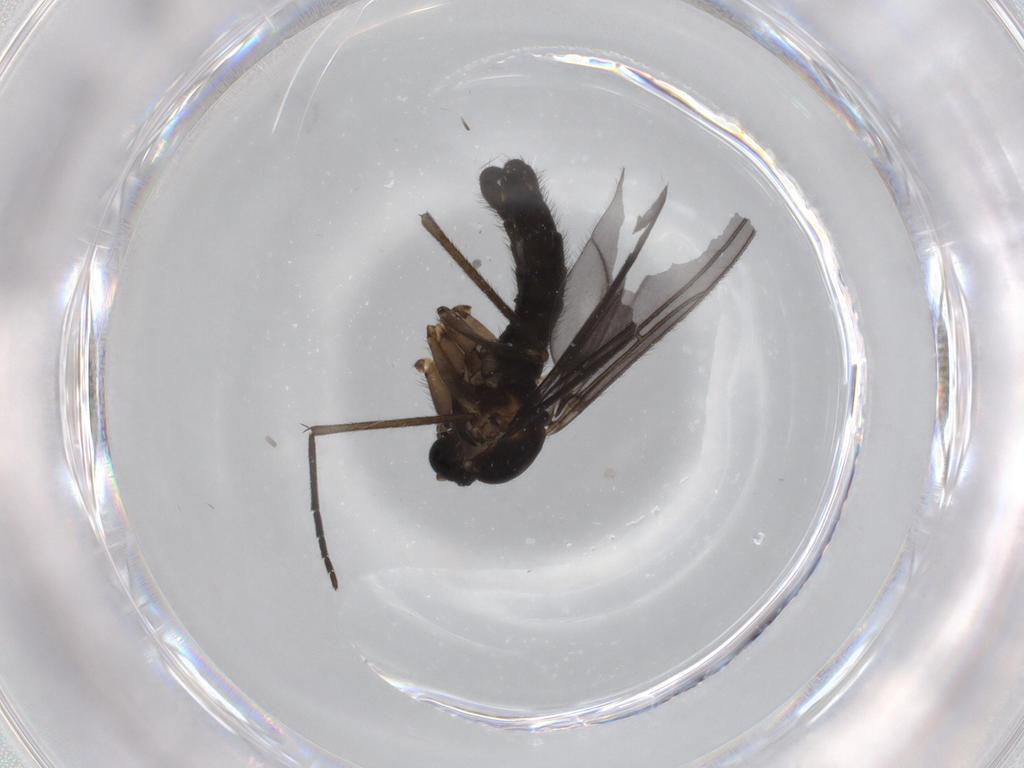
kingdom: Animalia
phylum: Arthropoda
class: Insecta
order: Diptera
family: Sciaridae
